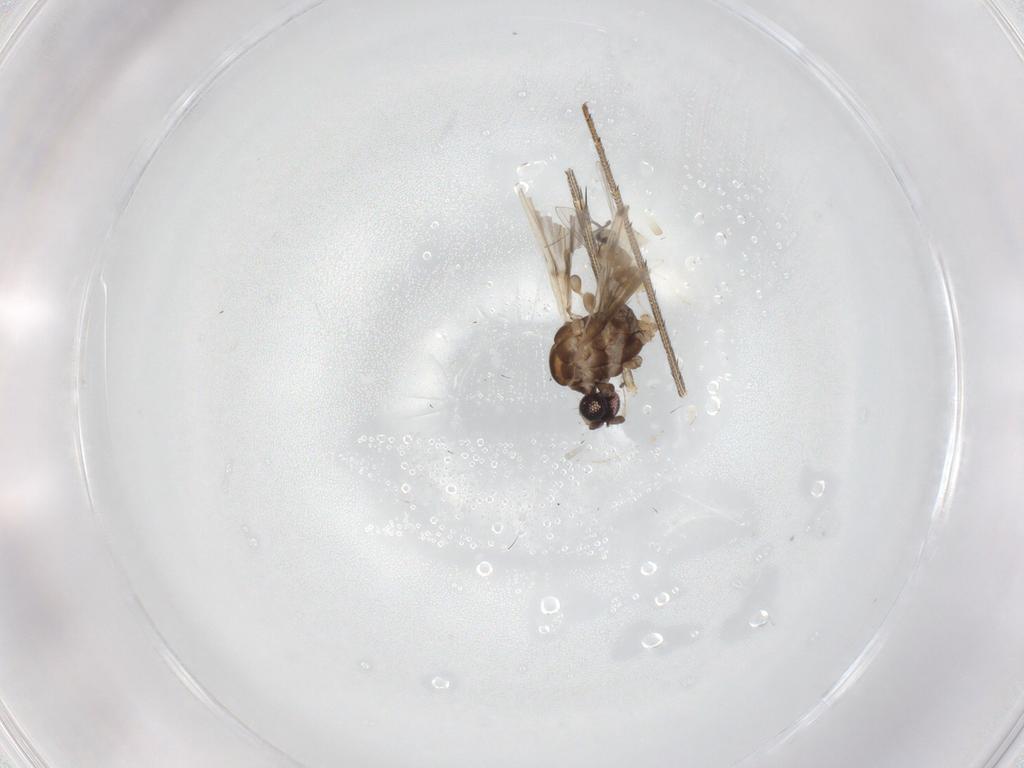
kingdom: Animalia
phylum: Arthropoda
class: Insecta
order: Diptera
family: Limoniidae
